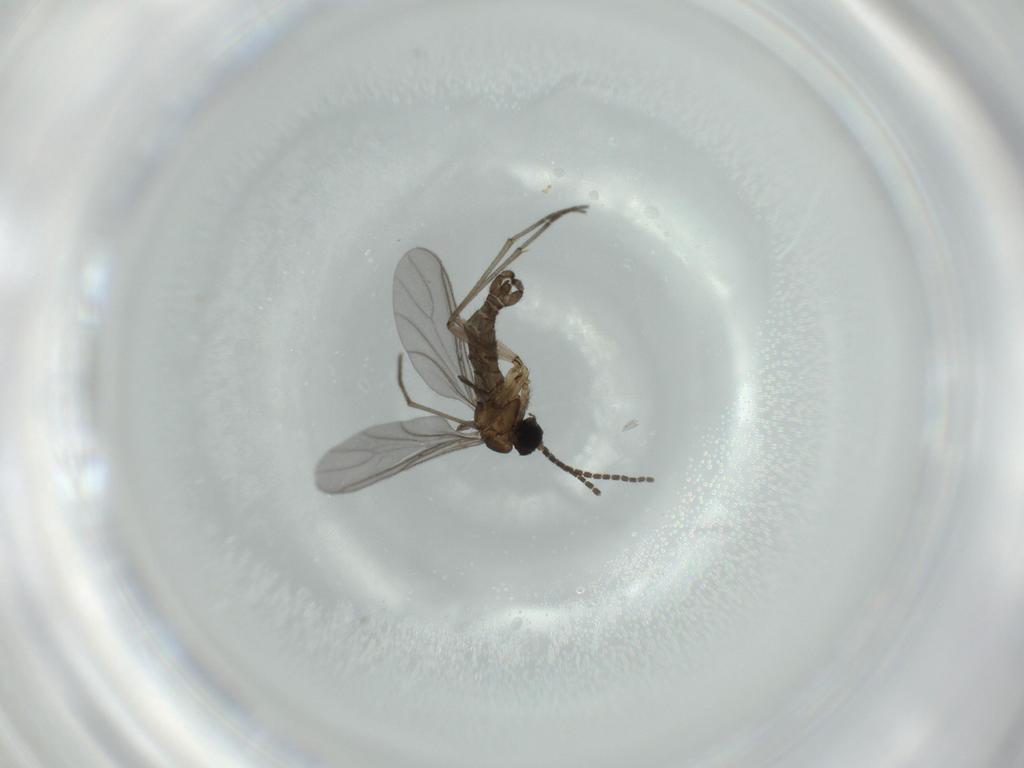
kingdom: Animalia
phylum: Arthropoda
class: Insecta
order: Diptera
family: Sciaridae
